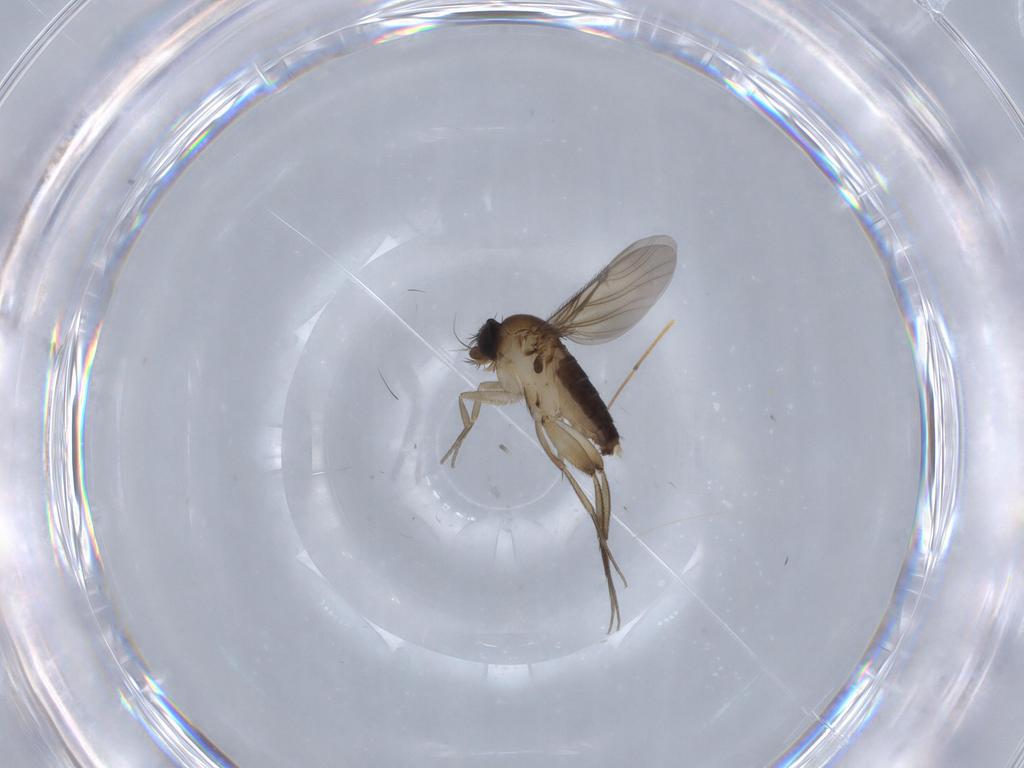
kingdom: Animalia
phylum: Arthropoda
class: Insecta
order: Diptera
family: Phoridae
